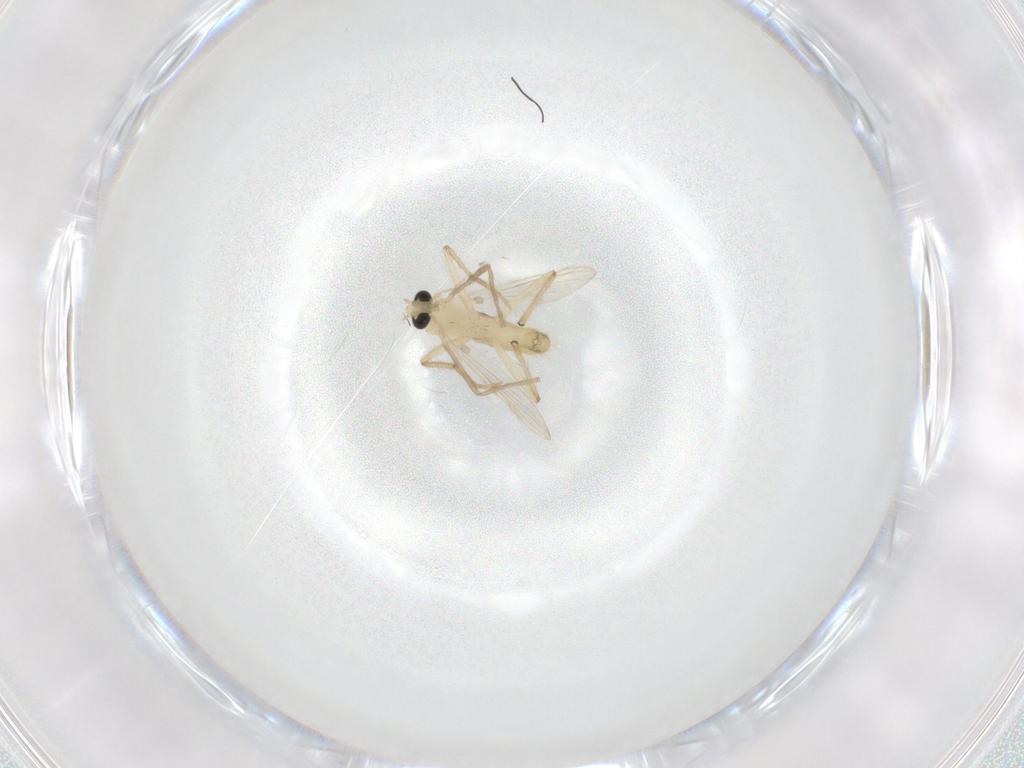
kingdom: Animalia
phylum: Arthropoda
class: Insecta
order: Diptera
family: Chironomidae
